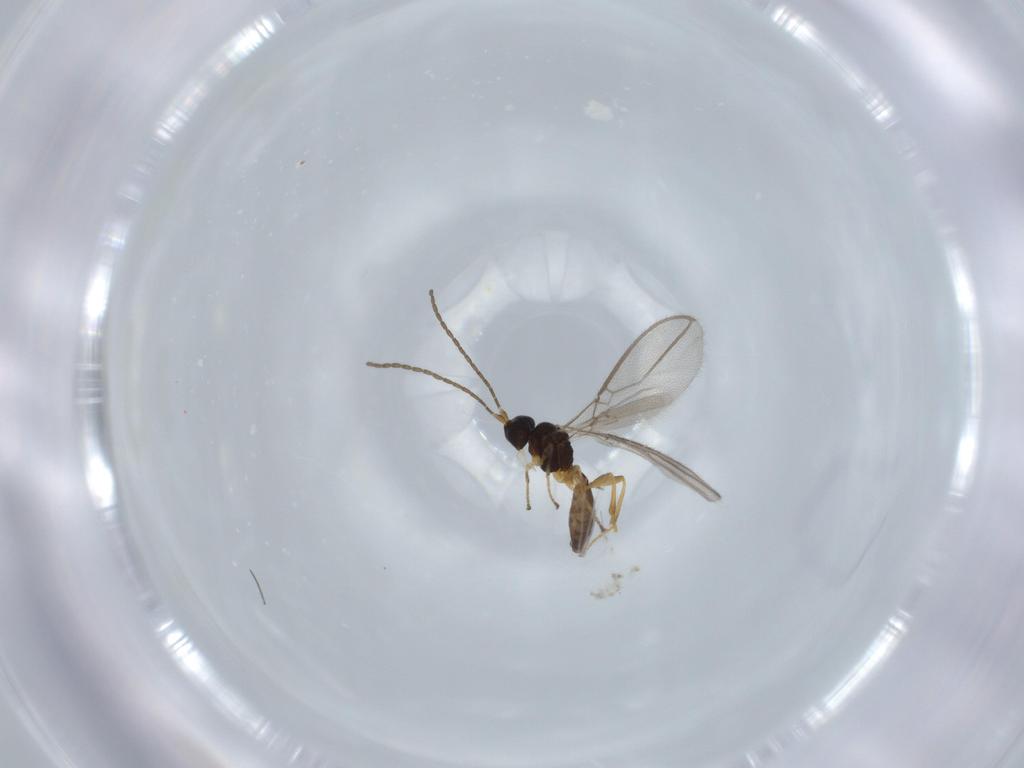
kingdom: Animalia
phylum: Arthropoda
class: Insecta
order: Hymenoptera
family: Braconidae
